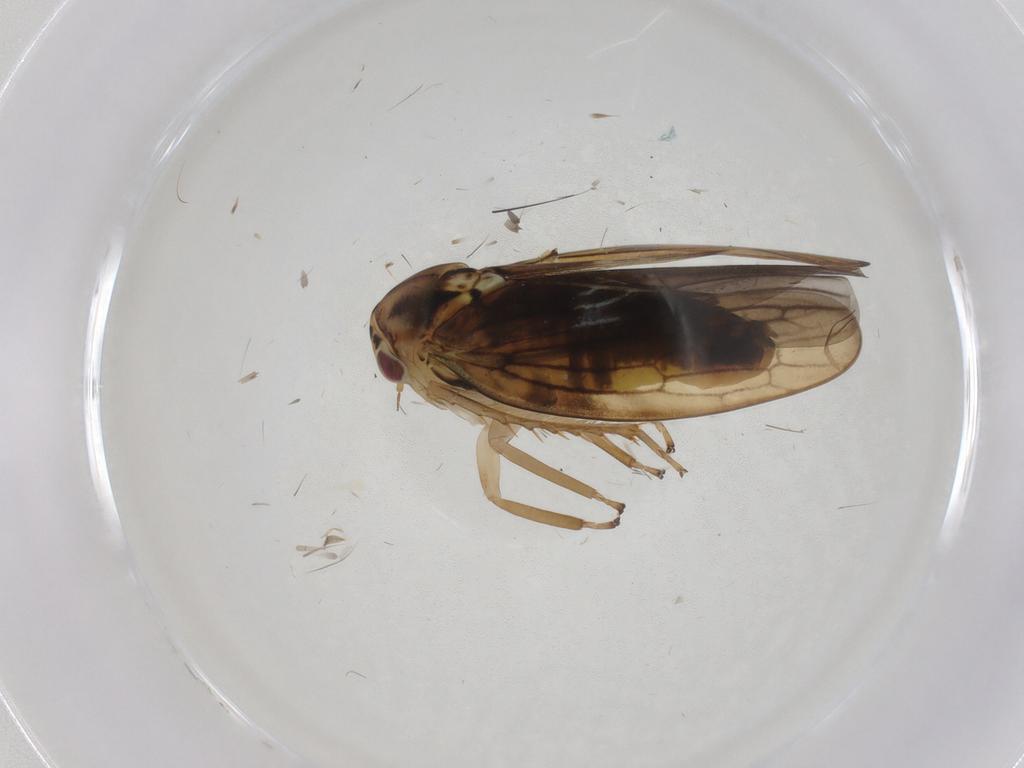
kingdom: Animalia
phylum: Arthropoda
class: Insecta
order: Hemiptera
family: Cicadellidae
